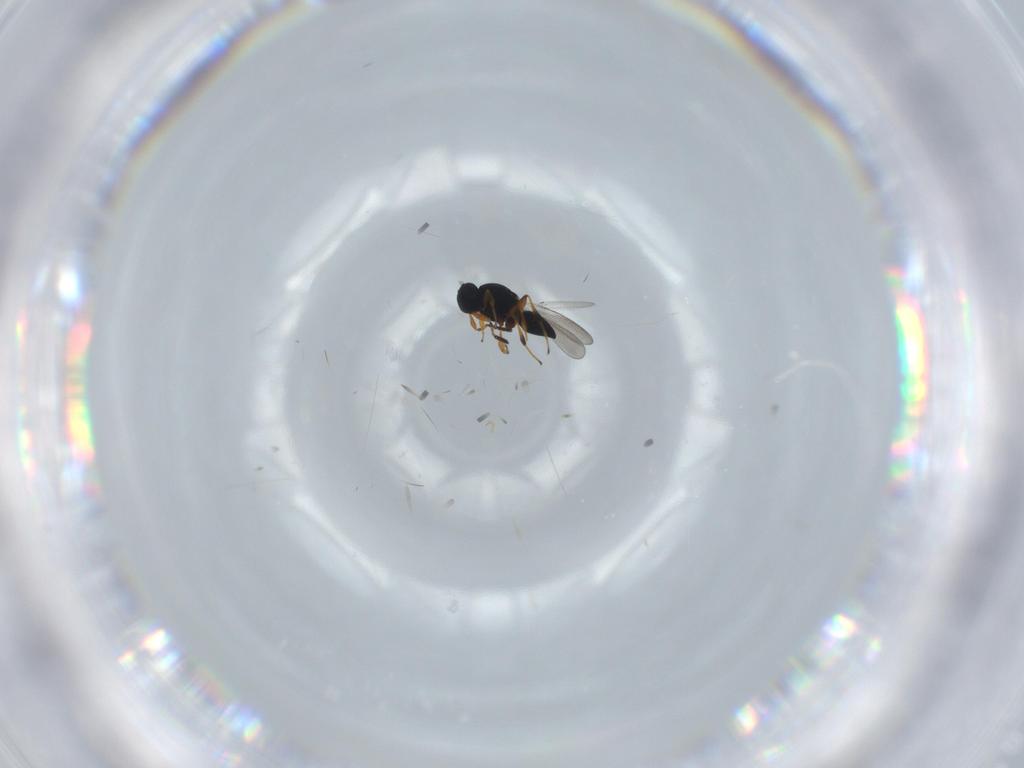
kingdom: Animalia
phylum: Arthropoda
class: Insecta
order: Hymenoptera
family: Platygastridae
